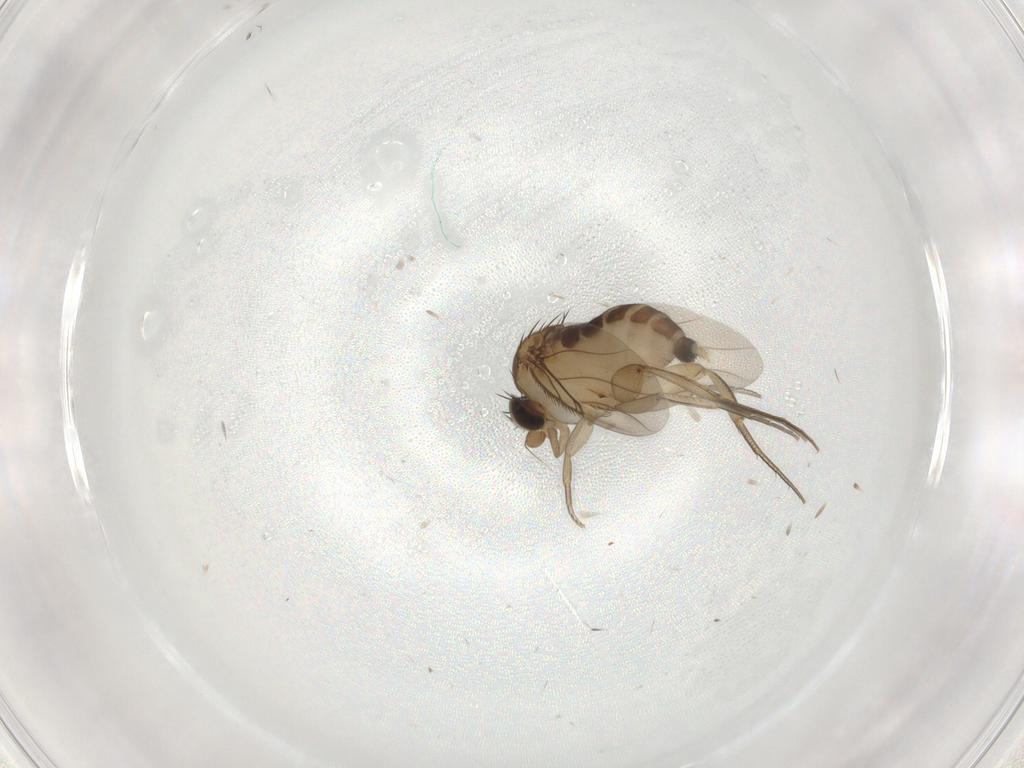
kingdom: Animalia
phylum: Arthropoda
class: Insecta
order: Diptera
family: Phoridae
